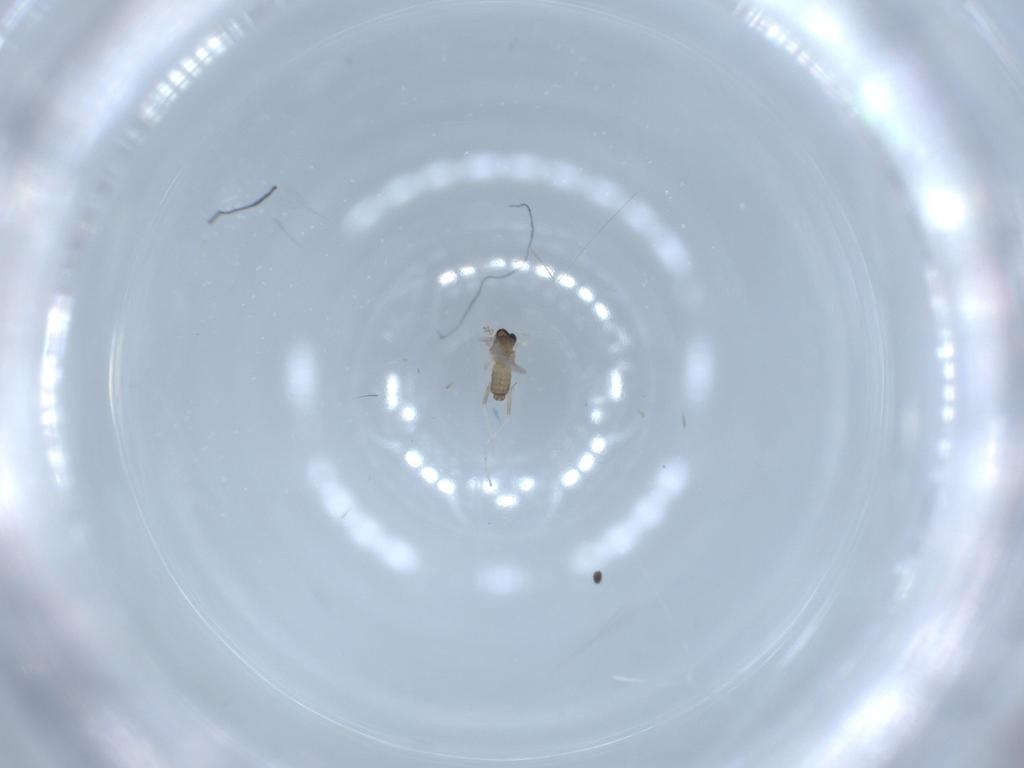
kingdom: Animalia
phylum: Arthropoda
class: Insecta
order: Diptera
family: Cecidomyiidae
